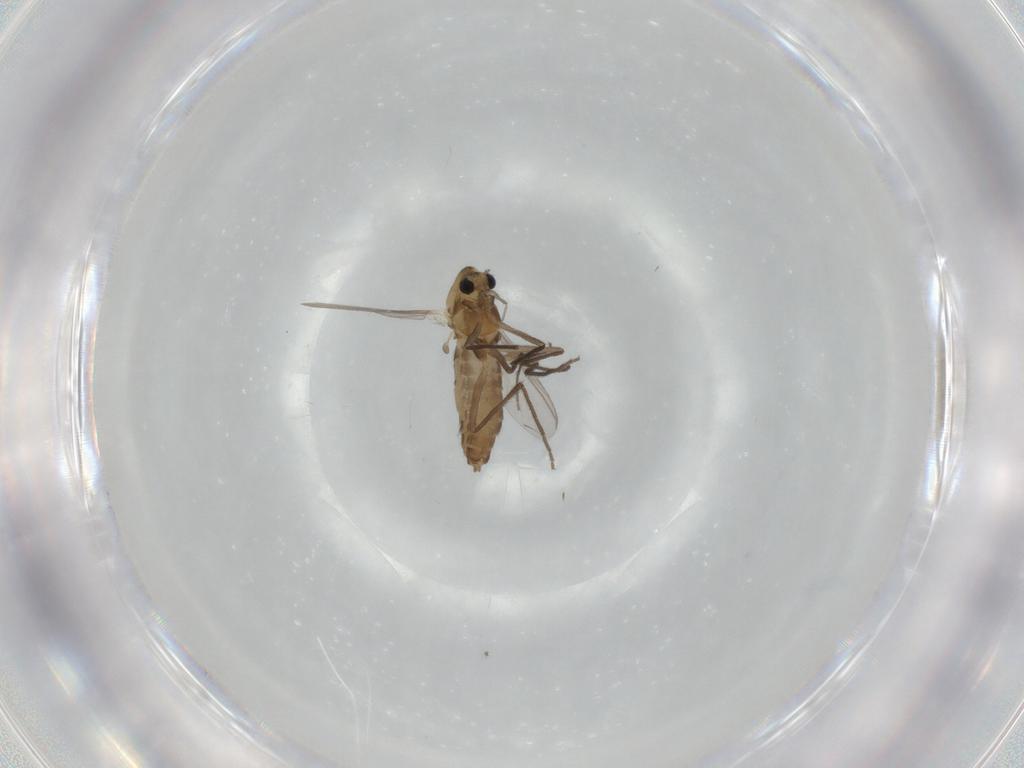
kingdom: Animalia
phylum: Arthropoda
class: Insecta
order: Diptera
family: Chironomidae
